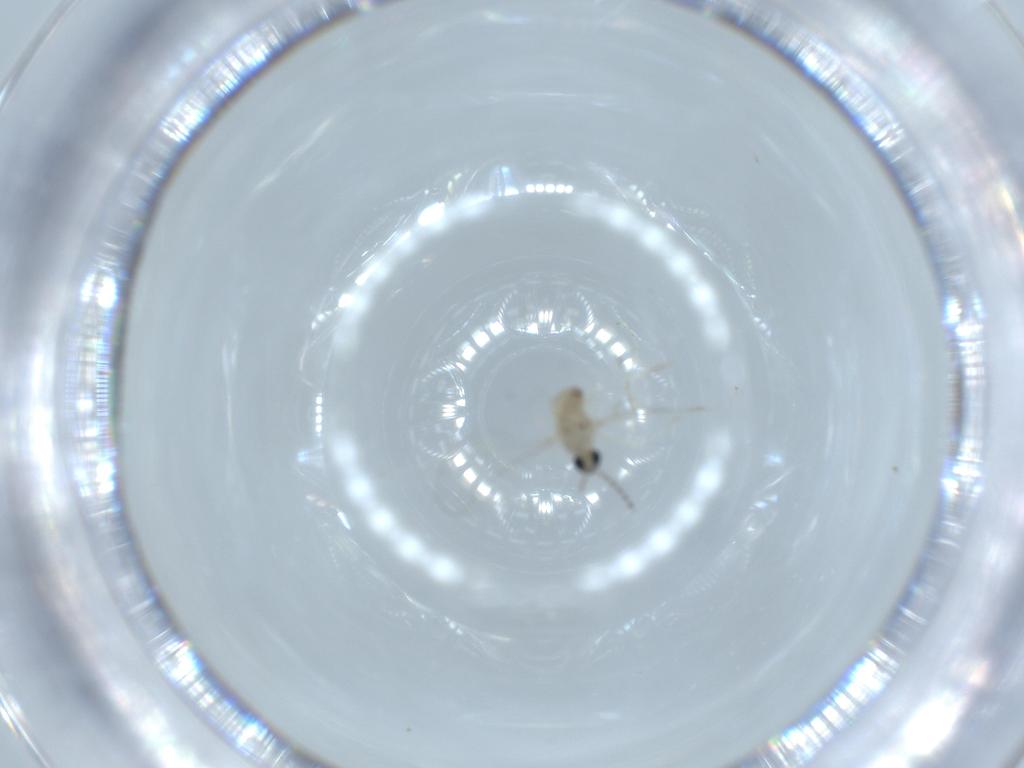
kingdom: Animalia
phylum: Arthropoda
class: Insecta
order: Diptera
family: Cecidomyiidae
